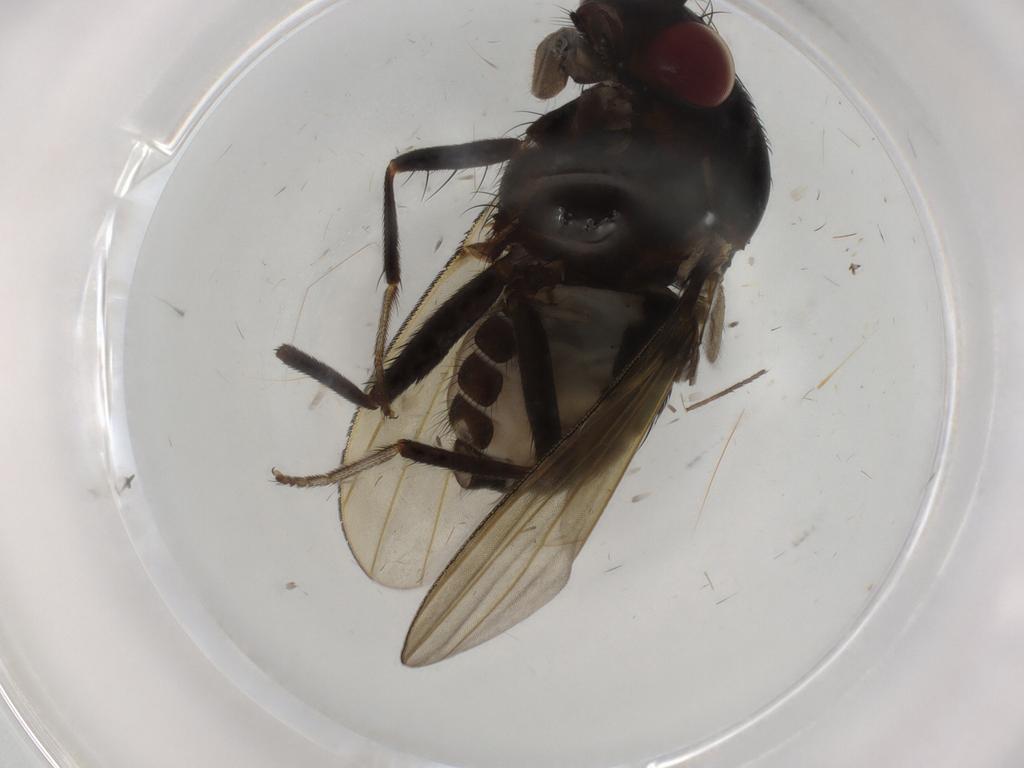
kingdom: Animalia
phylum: Arthropoda
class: Insecta
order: Diptera
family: Sciaridae
